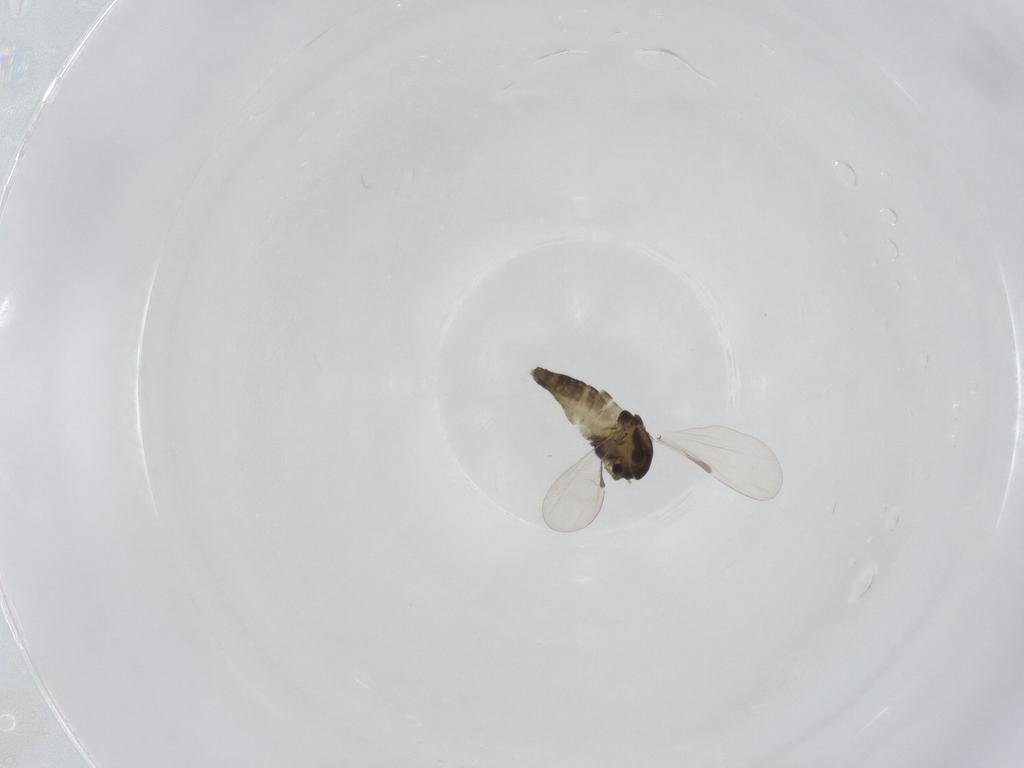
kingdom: Animalia
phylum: Arthropoda
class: Insecta
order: Diptera
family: Chironomidae
